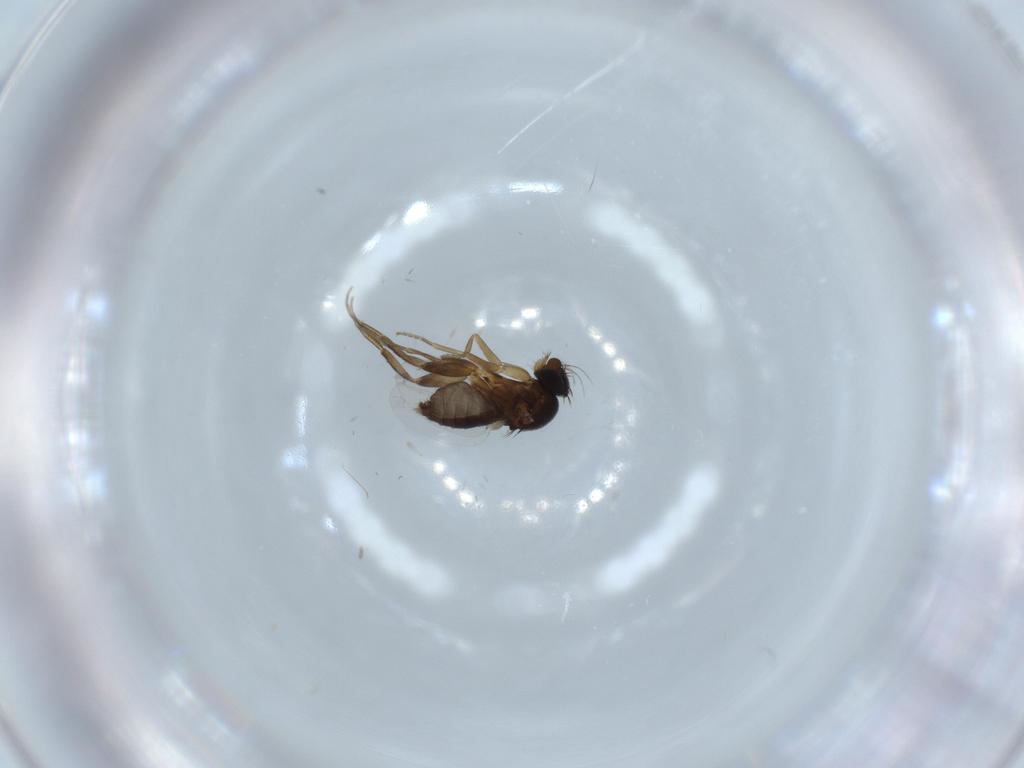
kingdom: Animalia
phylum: Arthropoda
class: Insecta
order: Diptera
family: Phoridae
